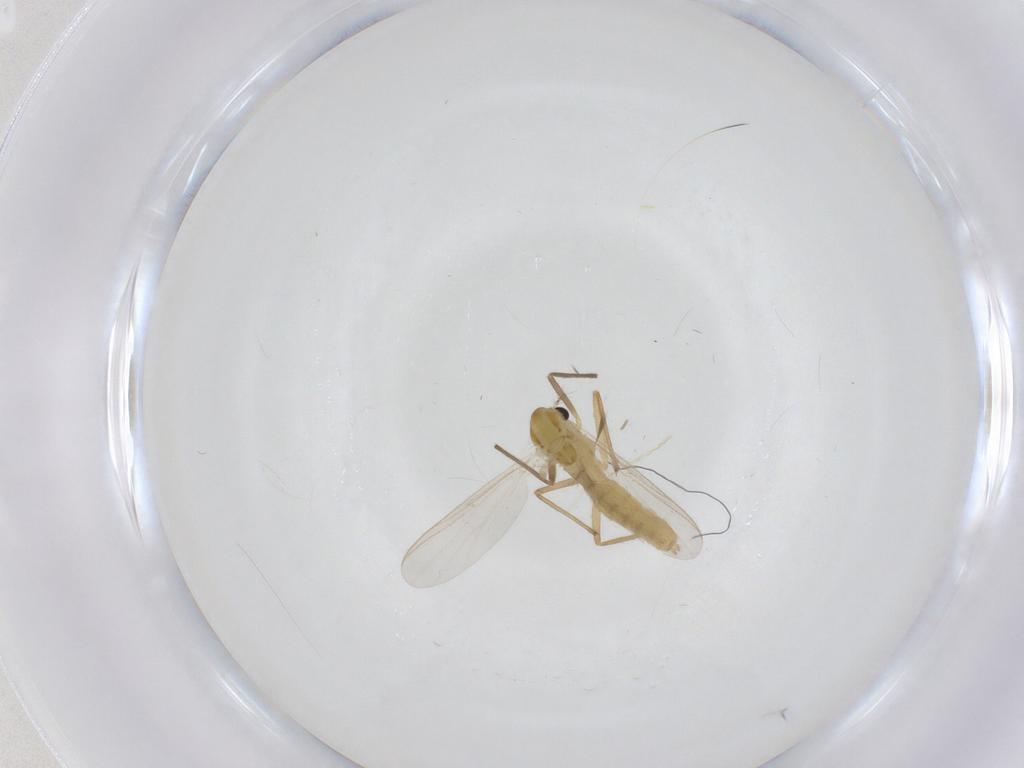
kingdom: Animalia
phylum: Arthropoda
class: Insecta
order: Diptera
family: Chironomidae
